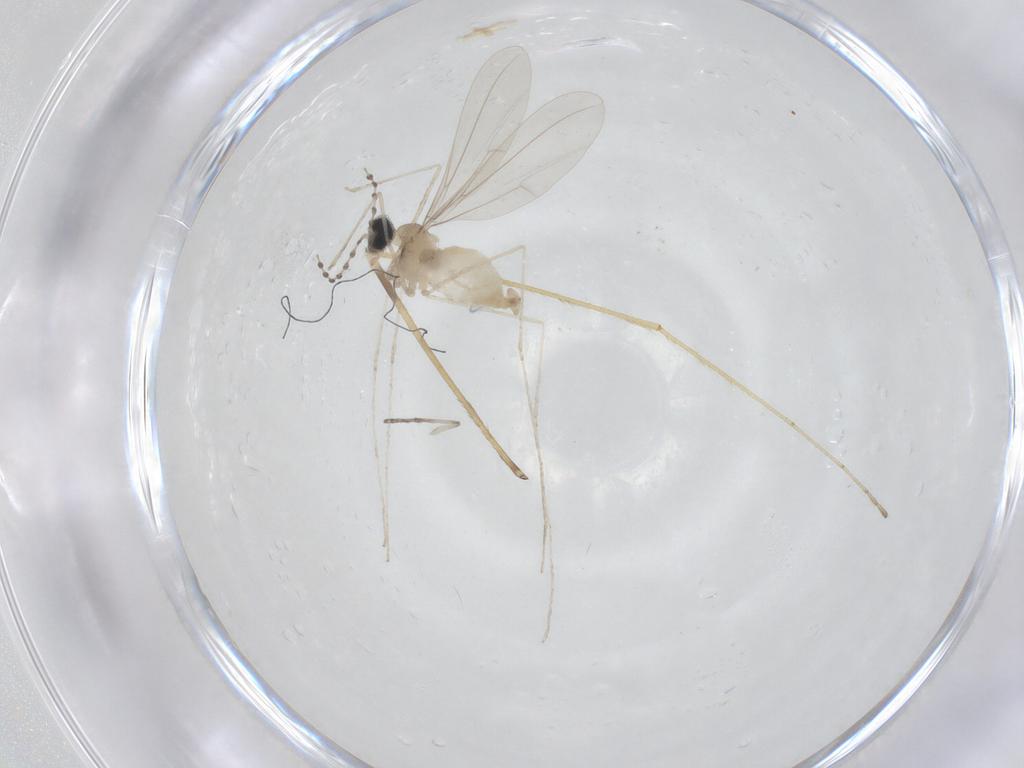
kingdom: Animalia
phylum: Arthropoda
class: Insecta
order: Diptera
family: Cecidomyiidae
